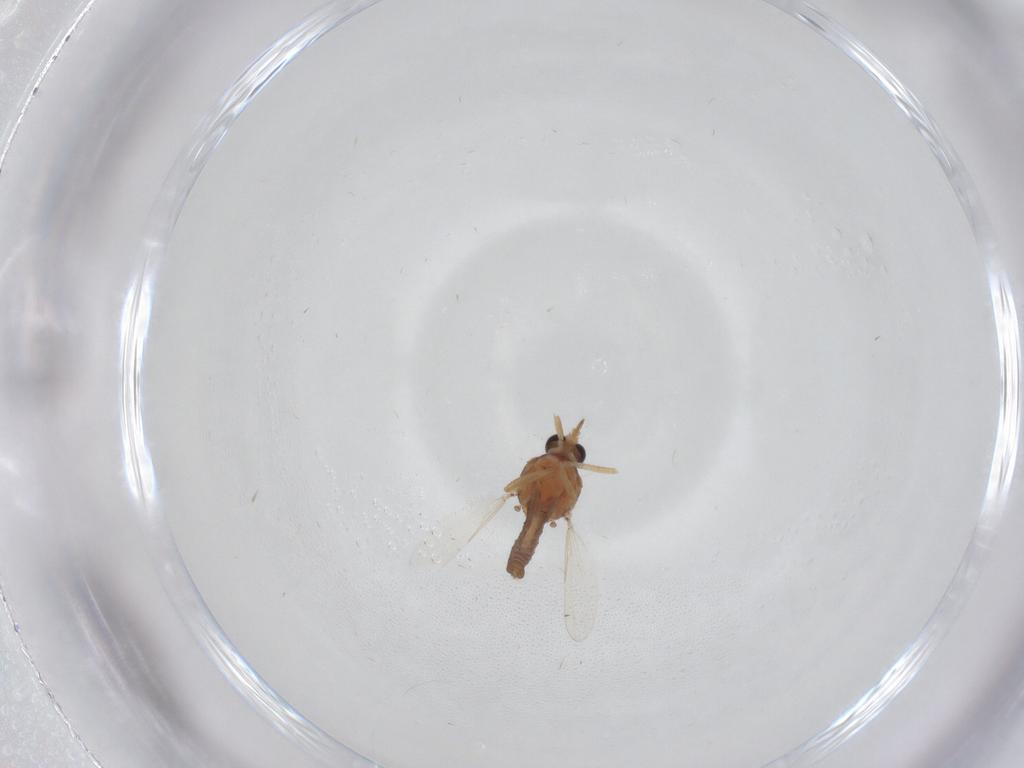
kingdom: Animalia
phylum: Arthropoda
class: Insecta
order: Diptera
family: Ceratopogonidae
